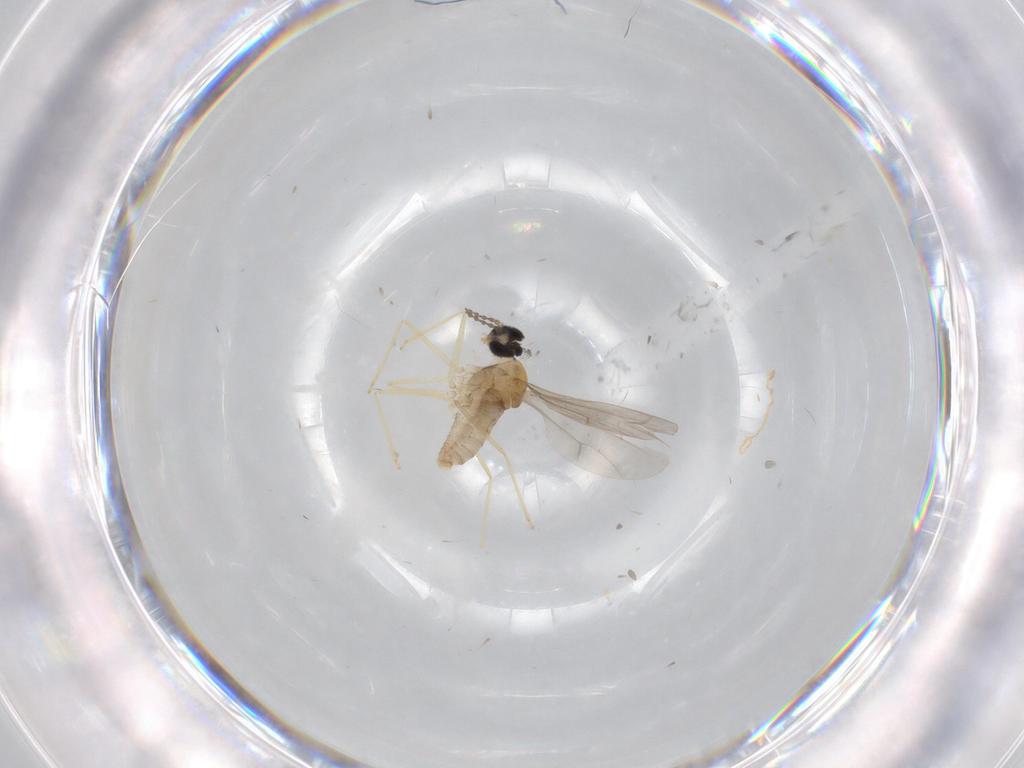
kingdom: Animalia
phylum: Arthropoda
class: Insecta
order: Diptera
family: Cecidomyiidae
